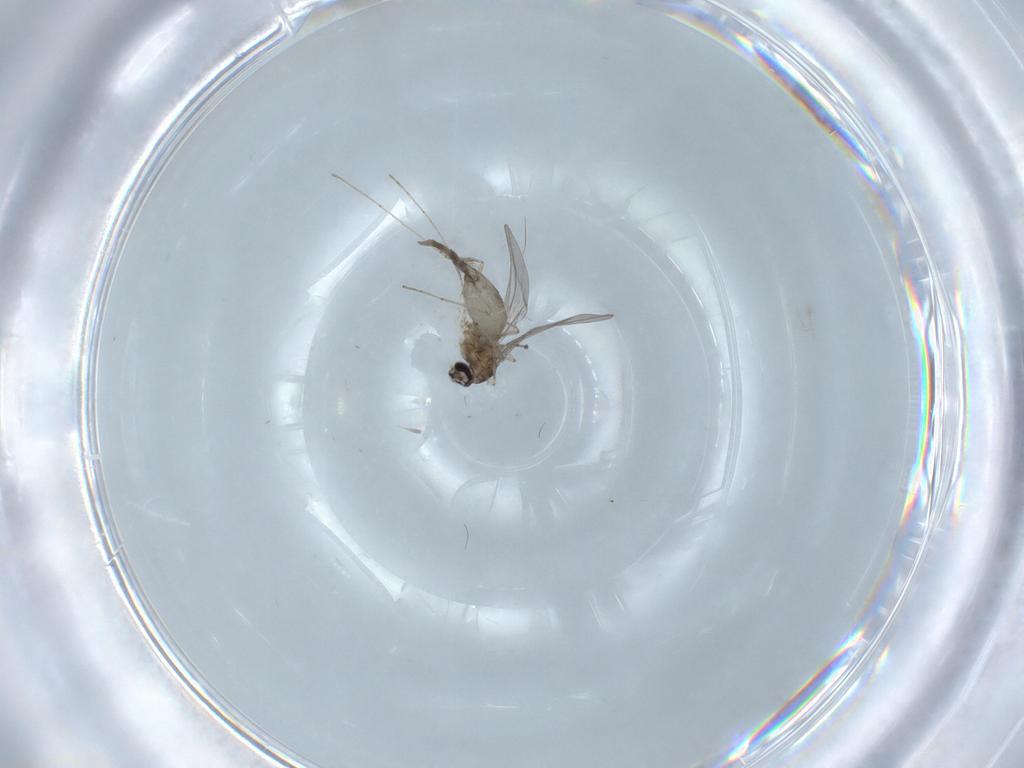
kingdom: Animalia
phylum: Arthropoda
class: Insecta
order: Diptera
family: Cecidomyiidae
